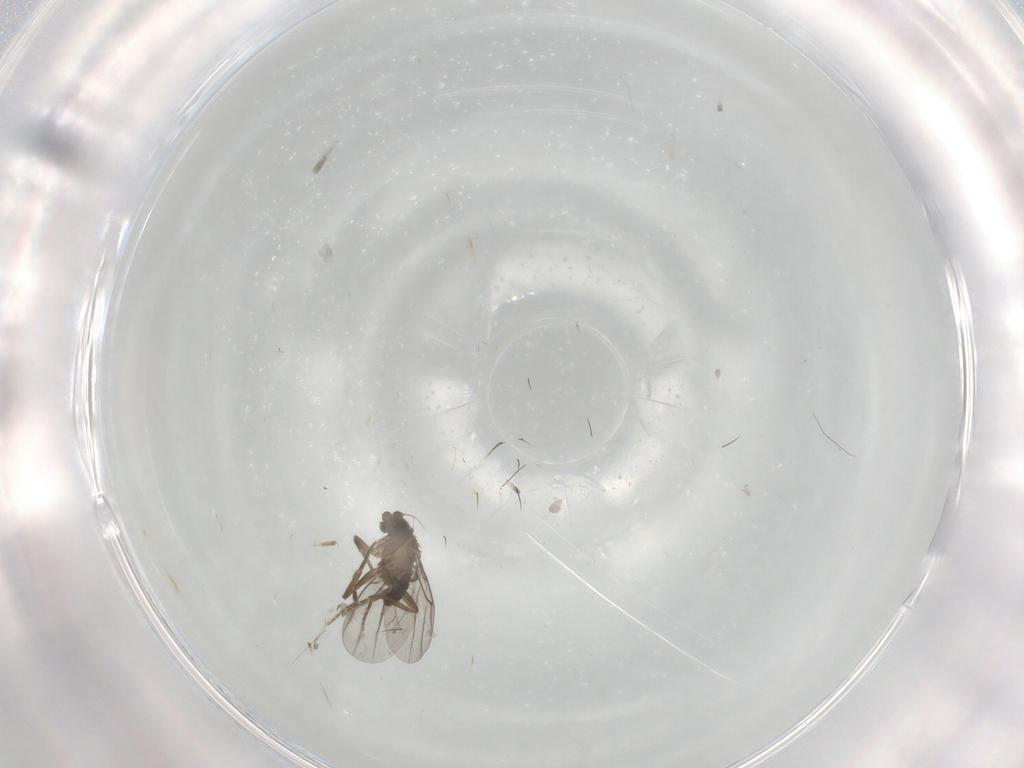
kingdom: Animalia
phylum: Arthropoda
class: Insecta
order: Diptera
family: Phoridae
